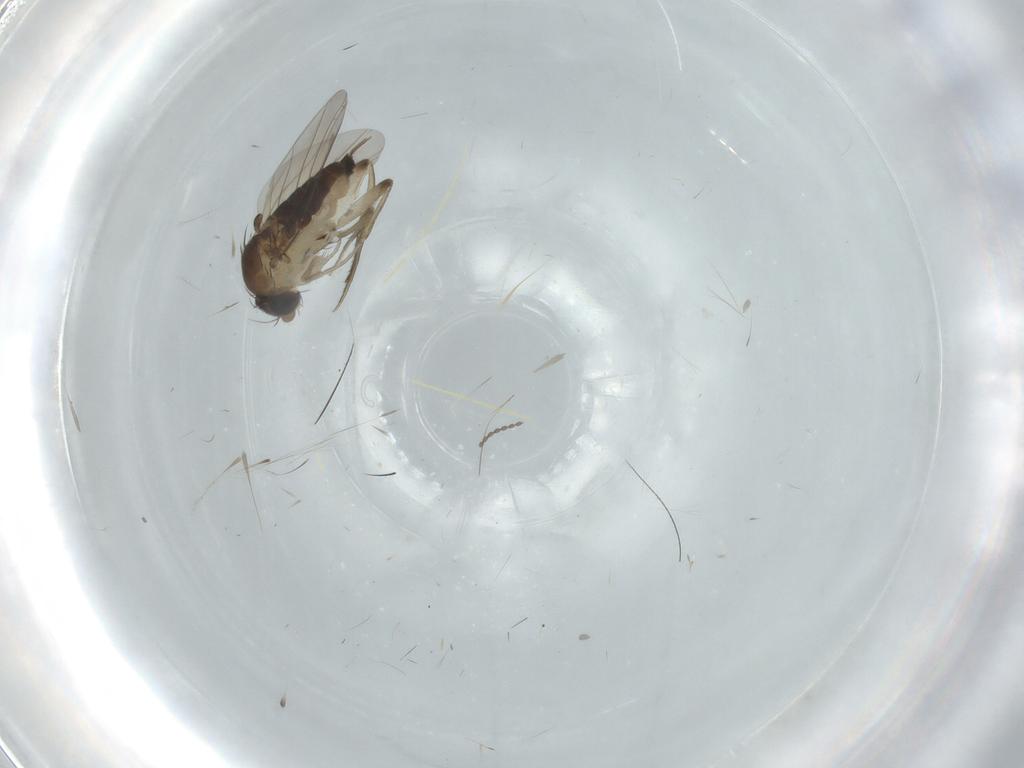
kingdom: Animalia
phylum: Arthropoda
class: Insecta
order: Diptera
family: Phoridae
